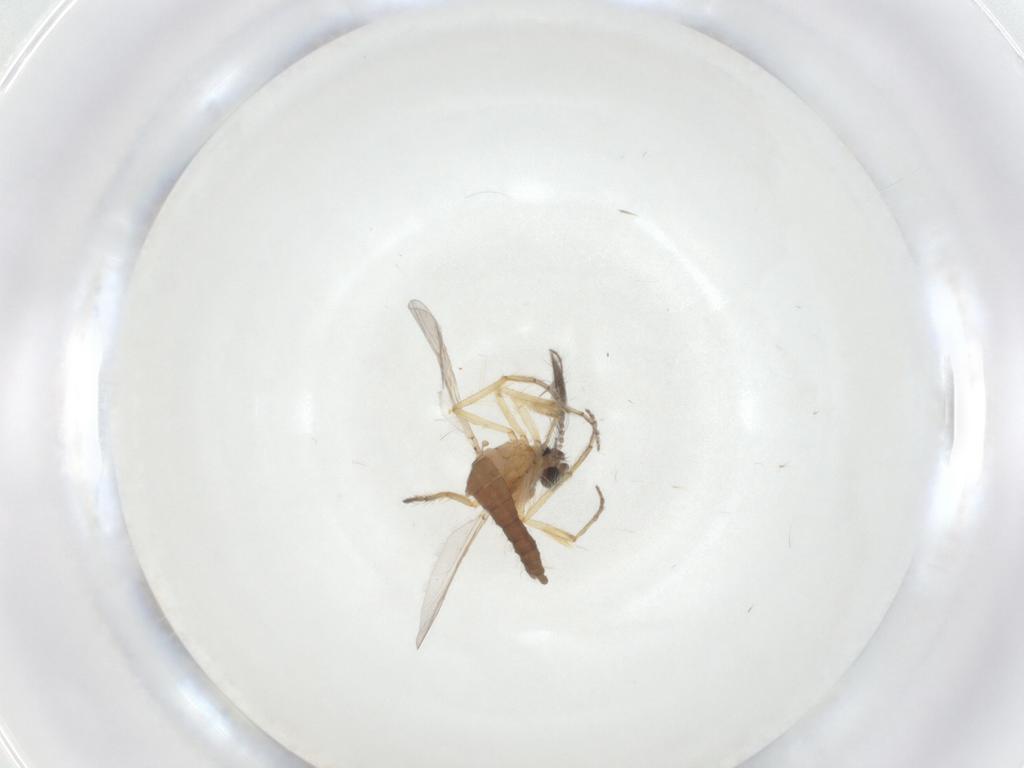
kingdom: Animalia
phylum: Arthropoda
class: Insecta
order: Diptera
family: Ceratopogonidae
